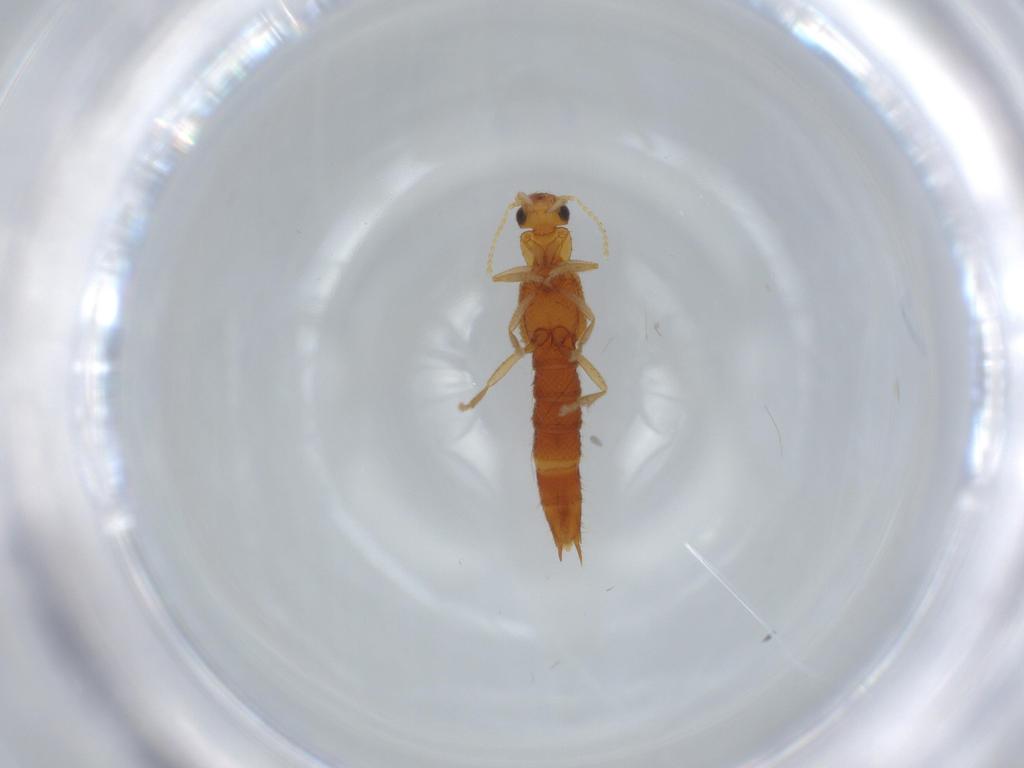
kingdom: Animalia
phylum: Arthropoda
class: Insecta
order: Coleoptera
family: Staphylinidae
